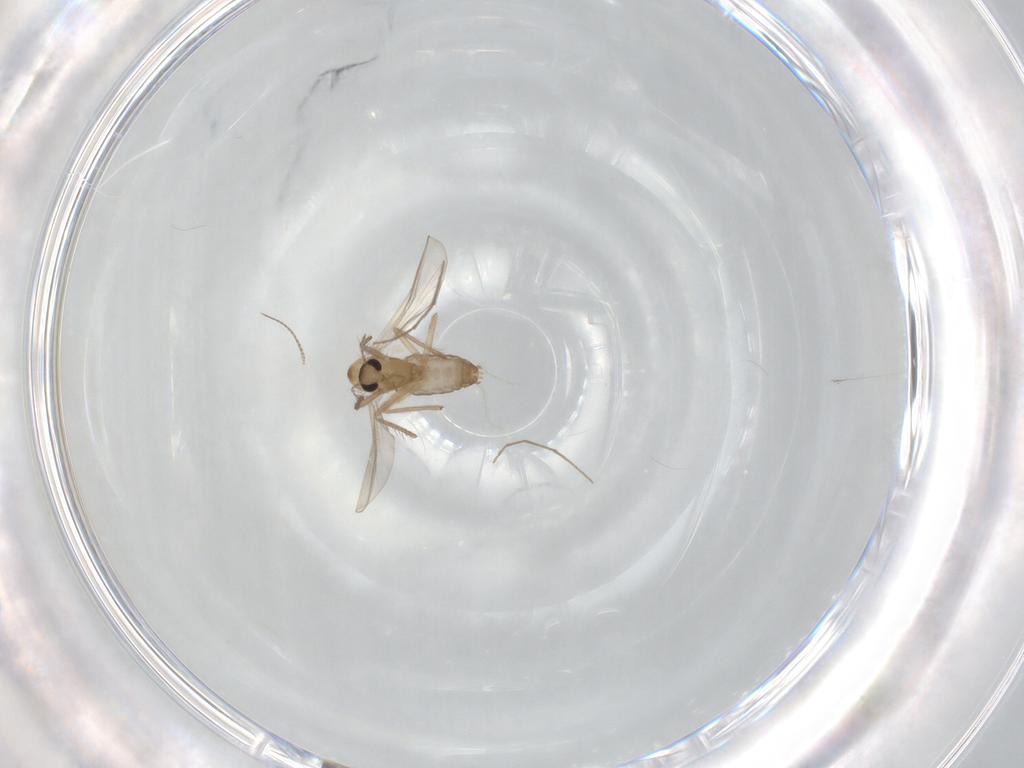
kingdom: Animalia
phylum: Arthropoda
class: Insecta
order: Diptera
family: Chironomidae
